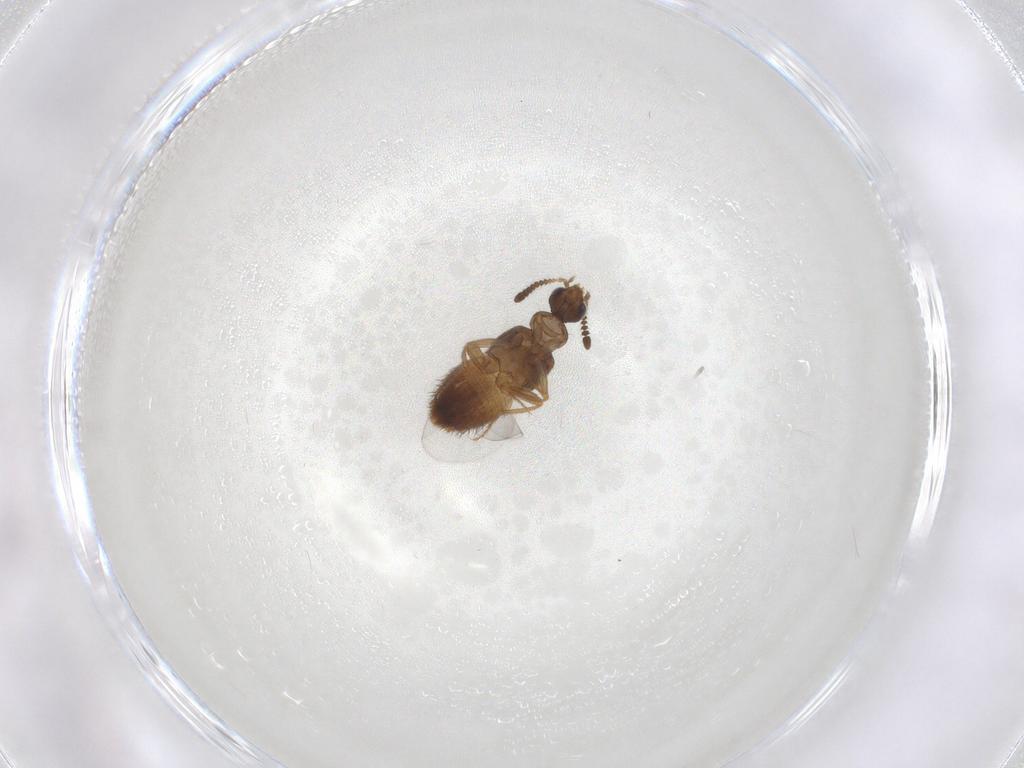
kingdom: Animalia
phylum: Arthropoda
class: Insecta
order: Coleoptera
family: Staphylinidae
